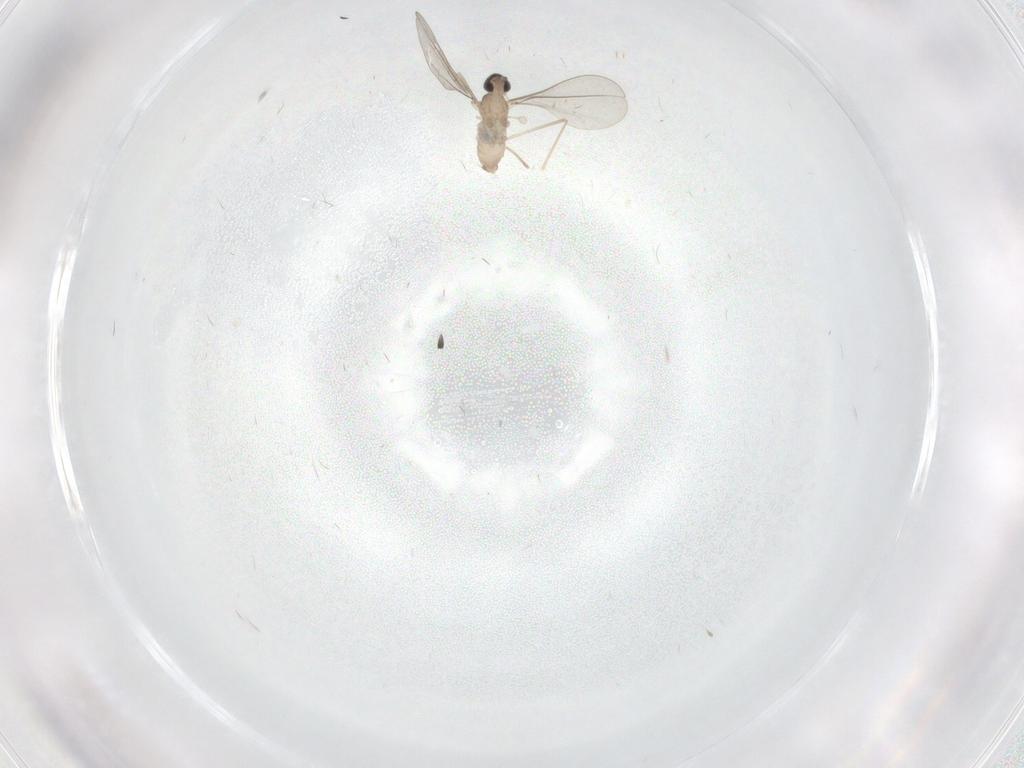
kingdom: Animalia
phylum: Arthropoda
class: Insecta
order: Diptera
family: Cecidomyiidae
